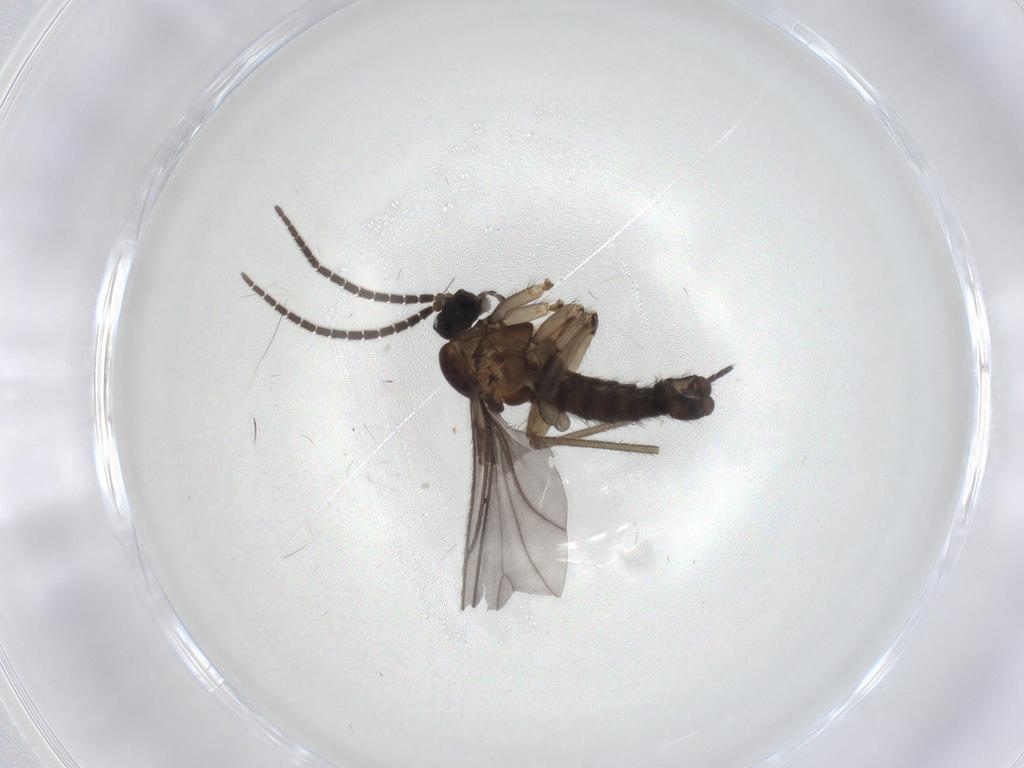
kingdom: Animalia
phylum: Arthropoda
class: Insecta
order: Diptera
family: Sciaridae
